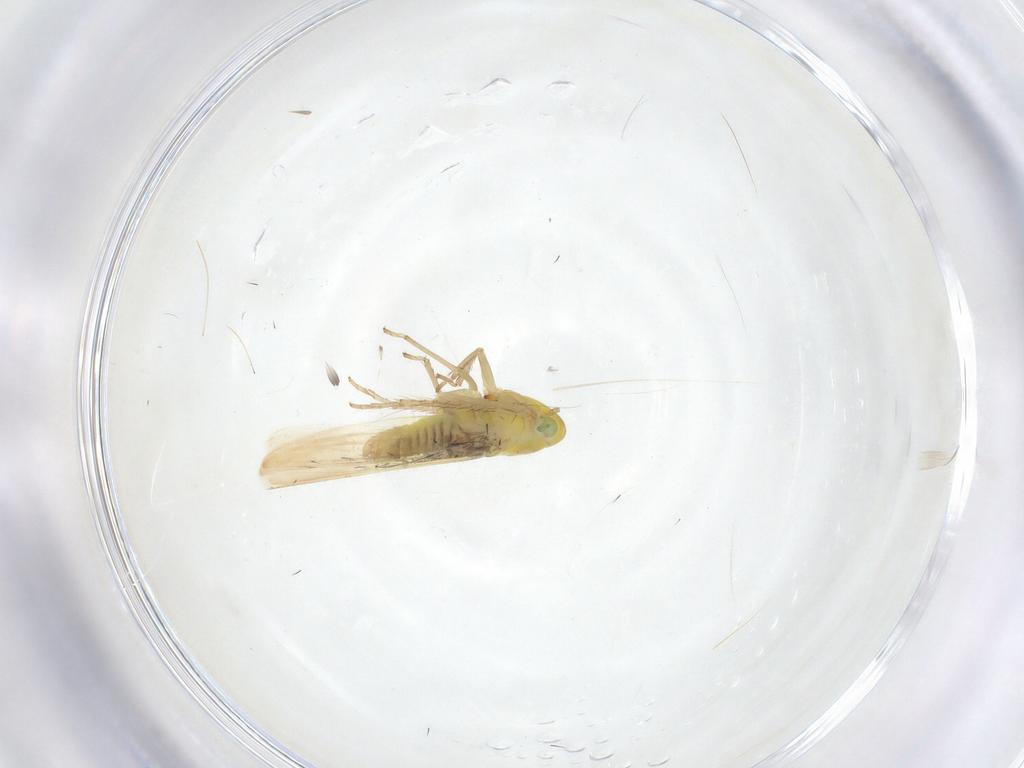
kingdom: Animalia
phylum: Arthropoda
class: Insecta
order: Hemiptera
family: Cicadellidae
